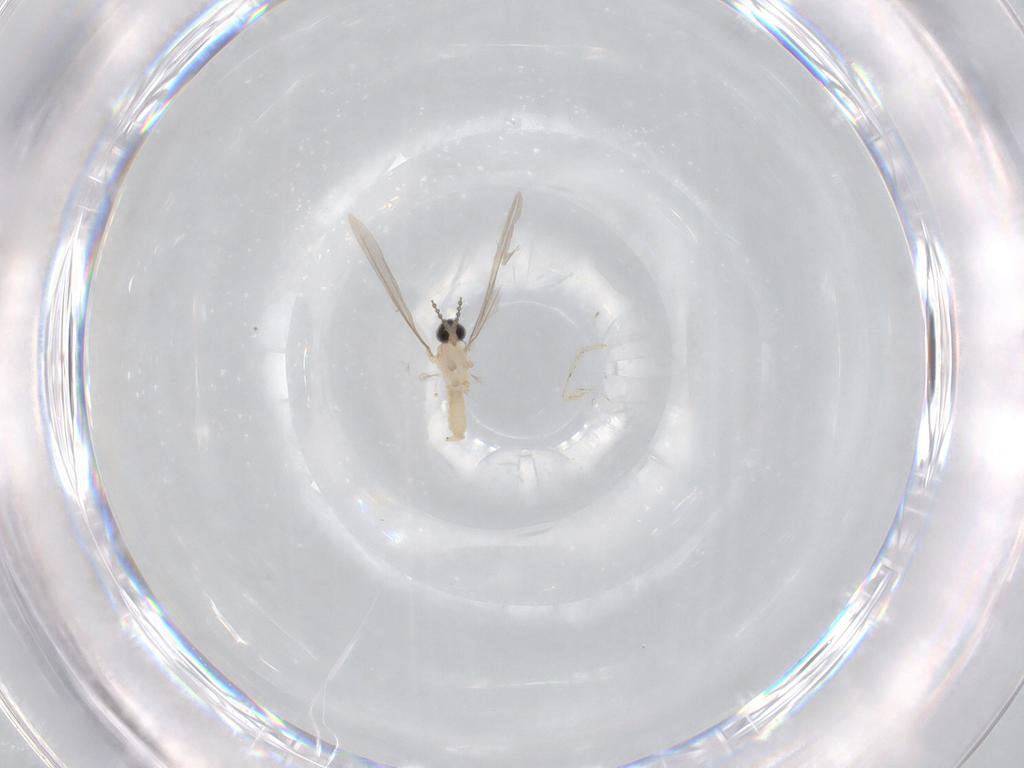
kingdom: Animalia
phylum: Arthropoda
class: Insecta
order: Diptera
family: Cecidomyiidae
